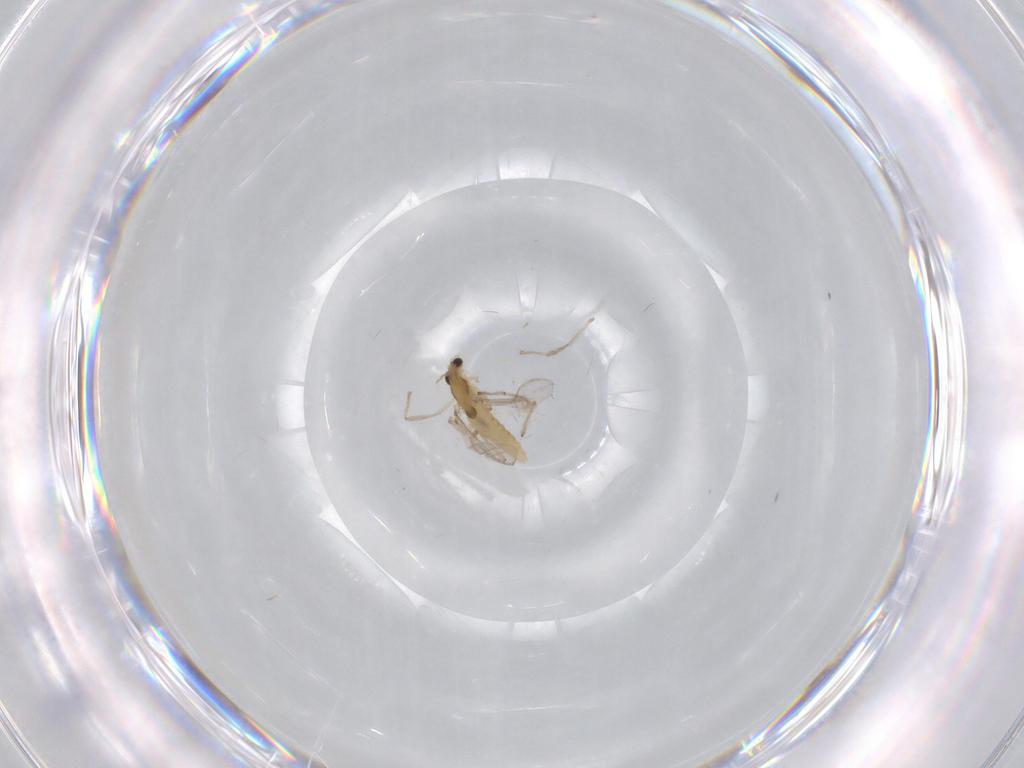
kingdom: Animalia
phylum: Arthropoda
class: Insecta
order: Diptera
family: Chironomidae
